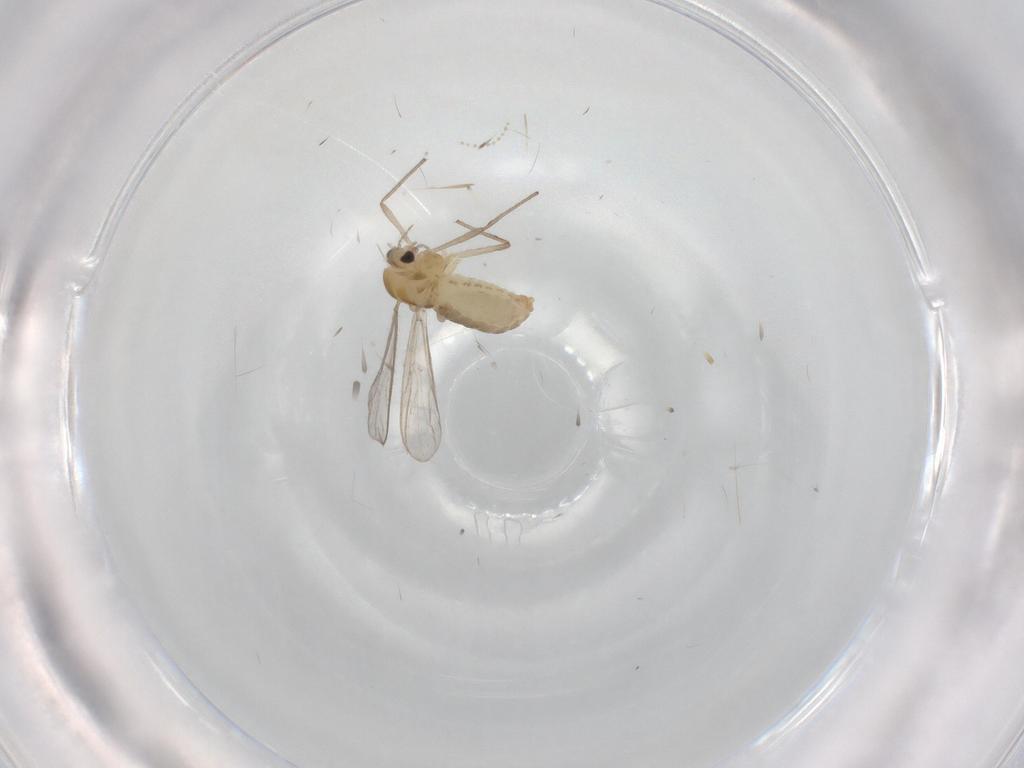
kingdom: Animalia
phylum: Arthropoda
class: Insecta
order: Diptera
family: Chironomidae
